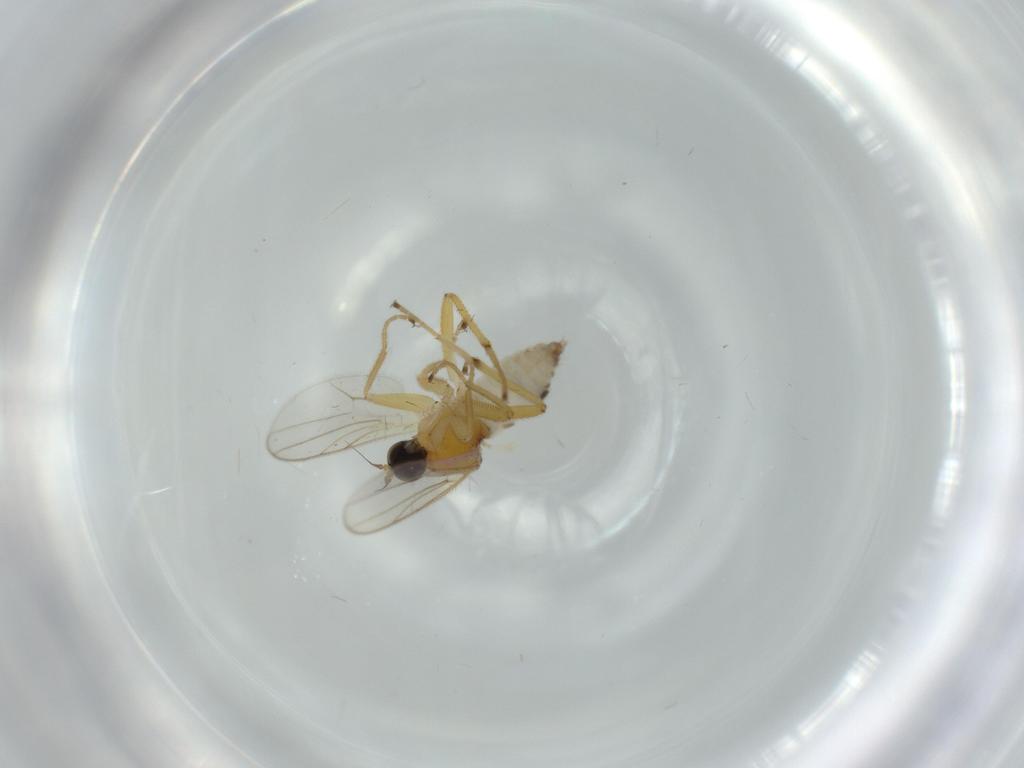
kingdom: Animalia
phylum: Arthropoda
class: Insecta
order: Diptera
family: Hybotidae
